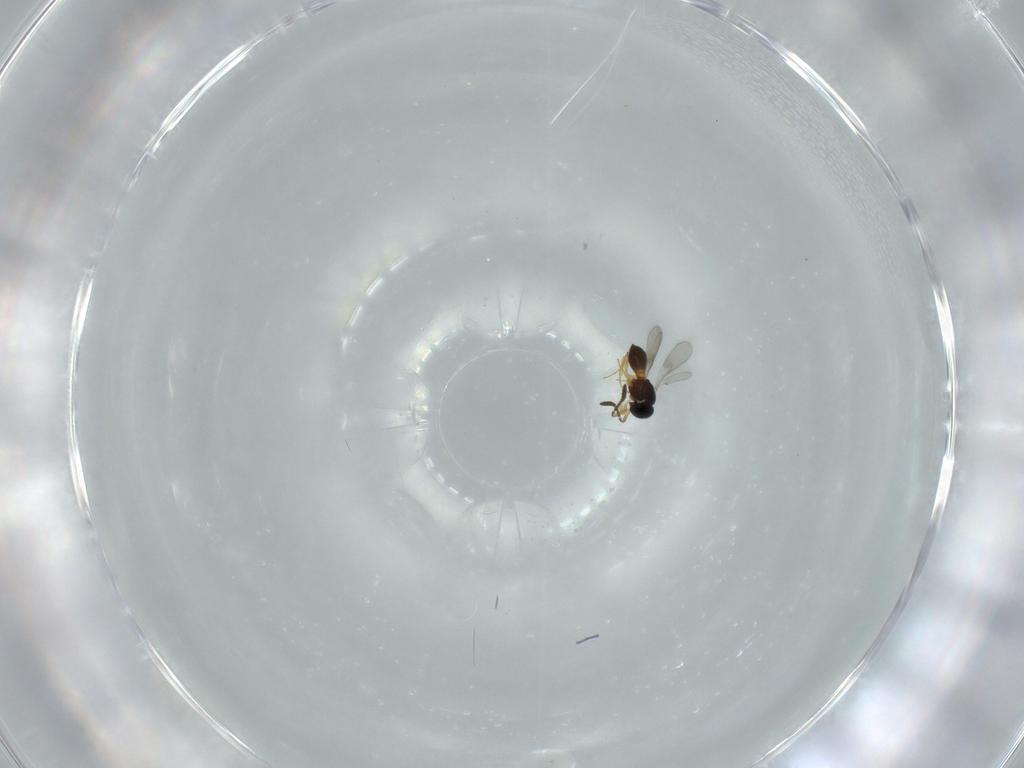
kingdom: Animalia
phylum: Arthropoda
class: Insecta
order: Hymenoptera
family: Scelionidae
